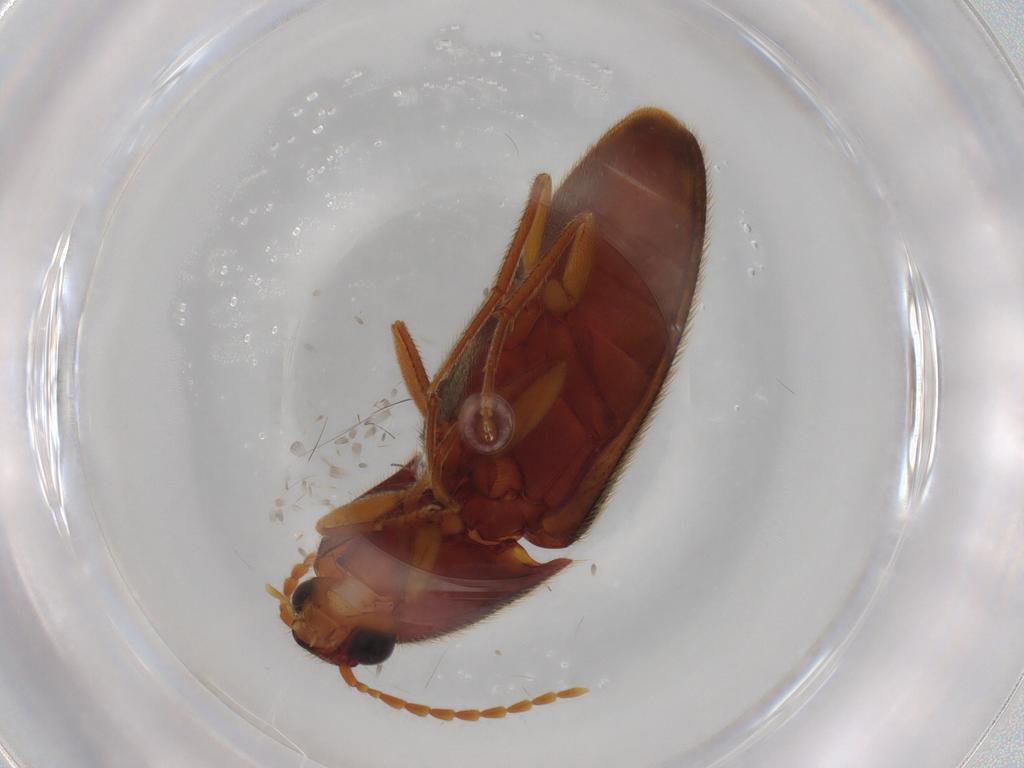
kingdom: Animalia
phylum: Arthropoda
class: Insecta
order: Coleoptera
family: Elateridae
